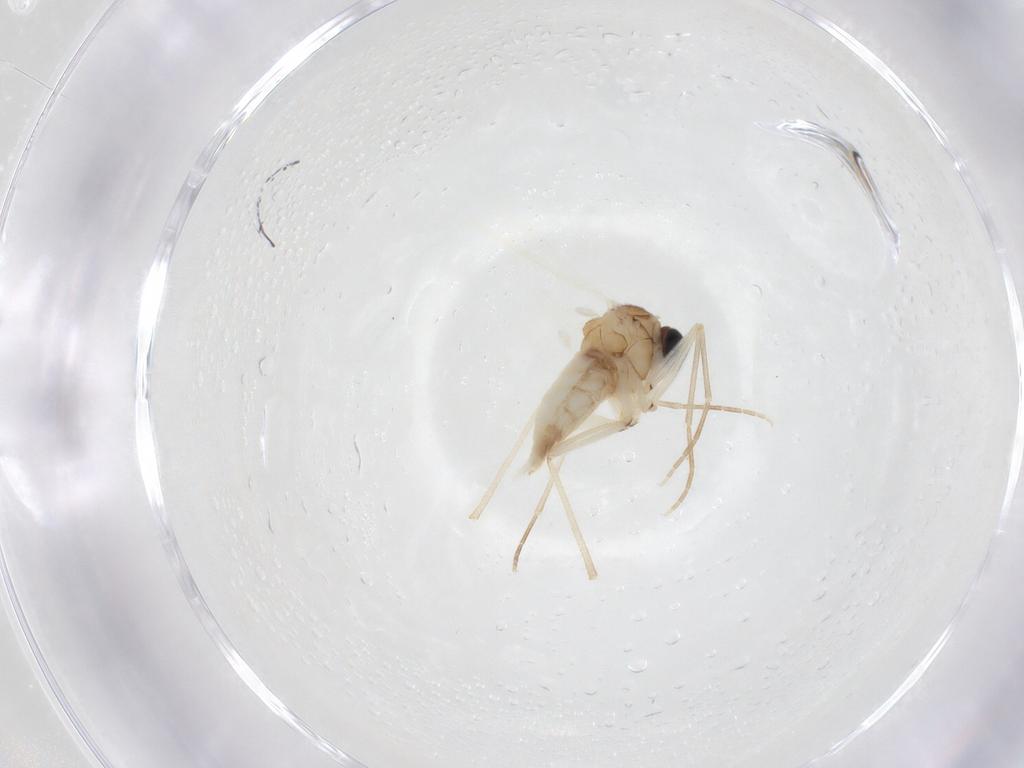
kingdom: Animalia
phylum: Arthropoda
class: Insecta
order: Diptera
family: Sciaridae
